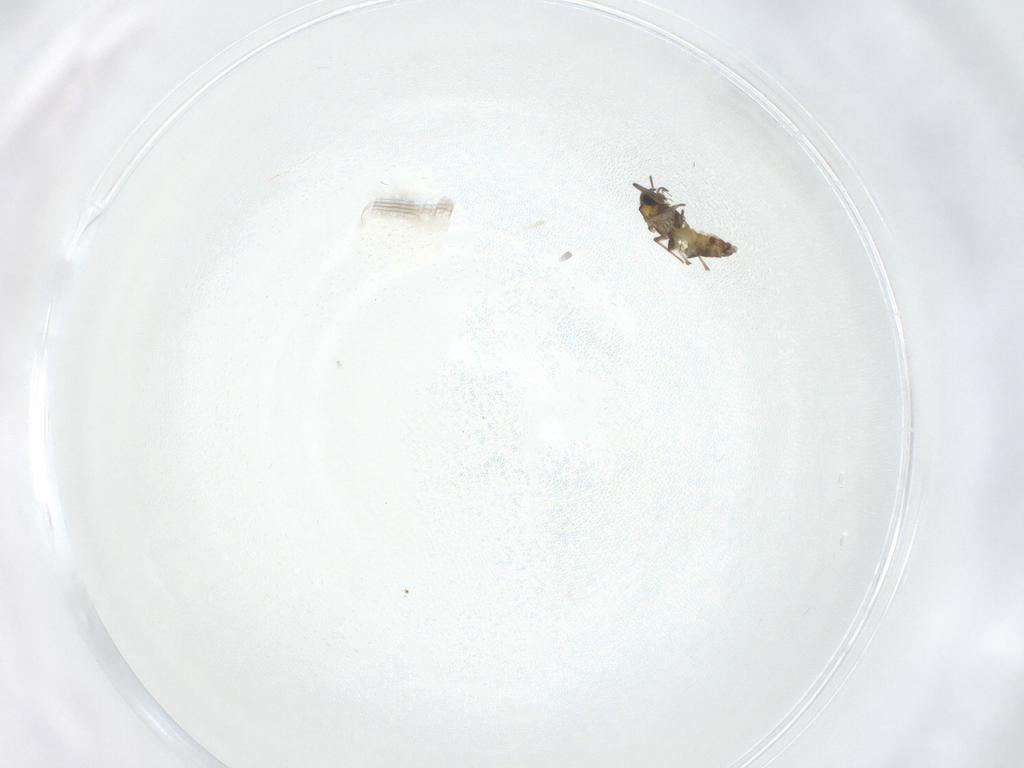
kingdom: Animalia
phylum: Arthropoda
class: Insecta
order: Diptera
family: Chironomidae
